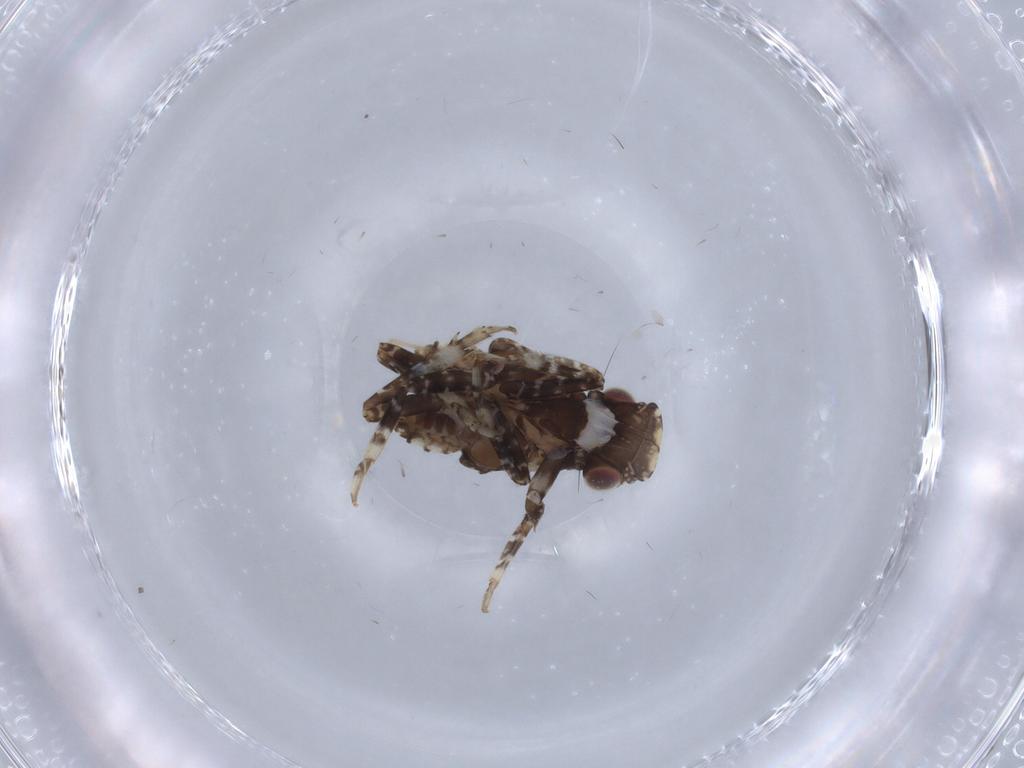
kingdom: Animalia
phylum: Arthropoda
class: Insecta
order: Hemiptera
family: Fulgoridae
